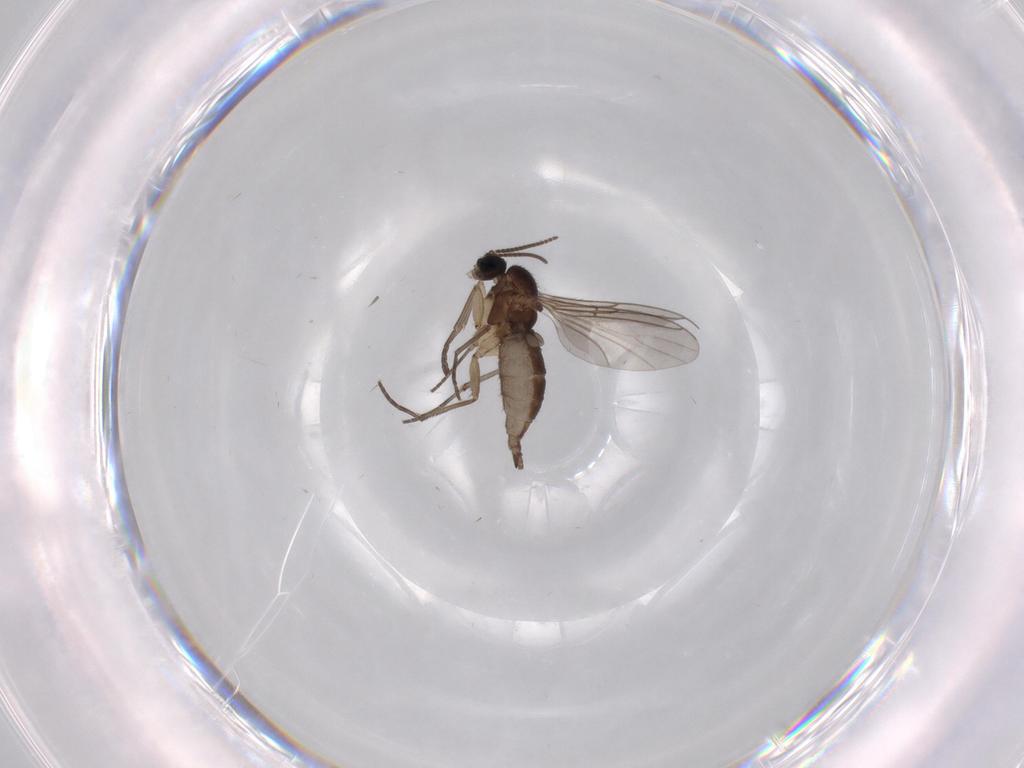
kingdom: Animalia
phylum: Arthropoda
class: Insecta
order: Diptera
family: Sciaridae
